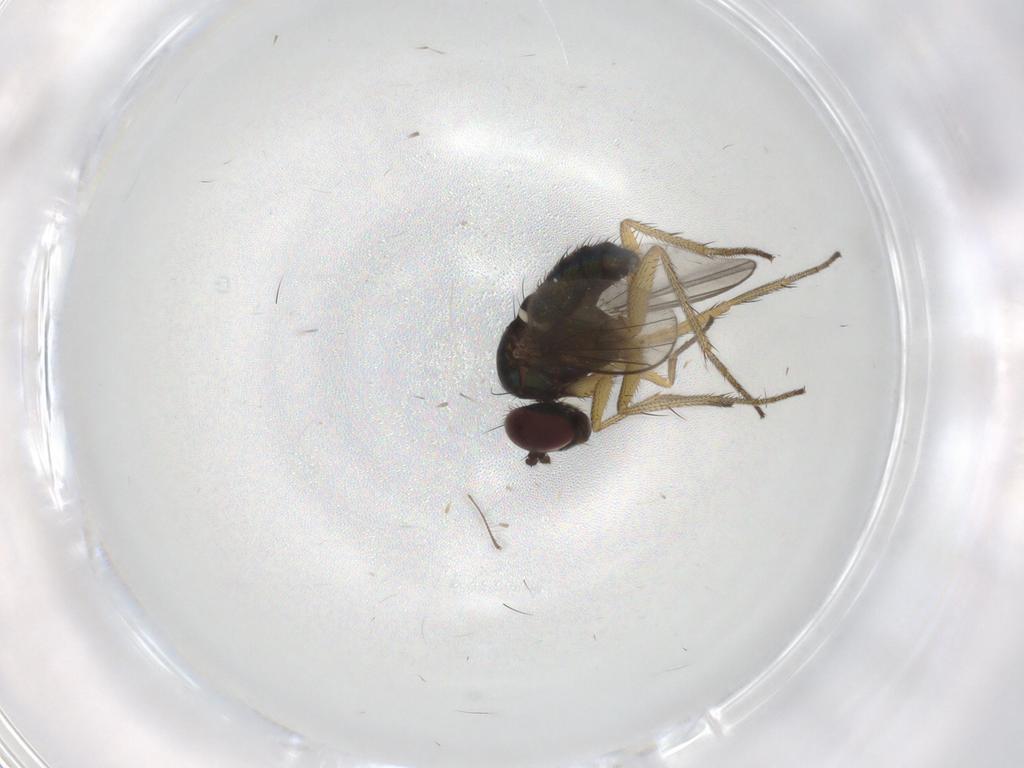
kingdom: Animalia
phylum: Arthropoda
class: Insecta
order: Diptera
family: Chironomidae
